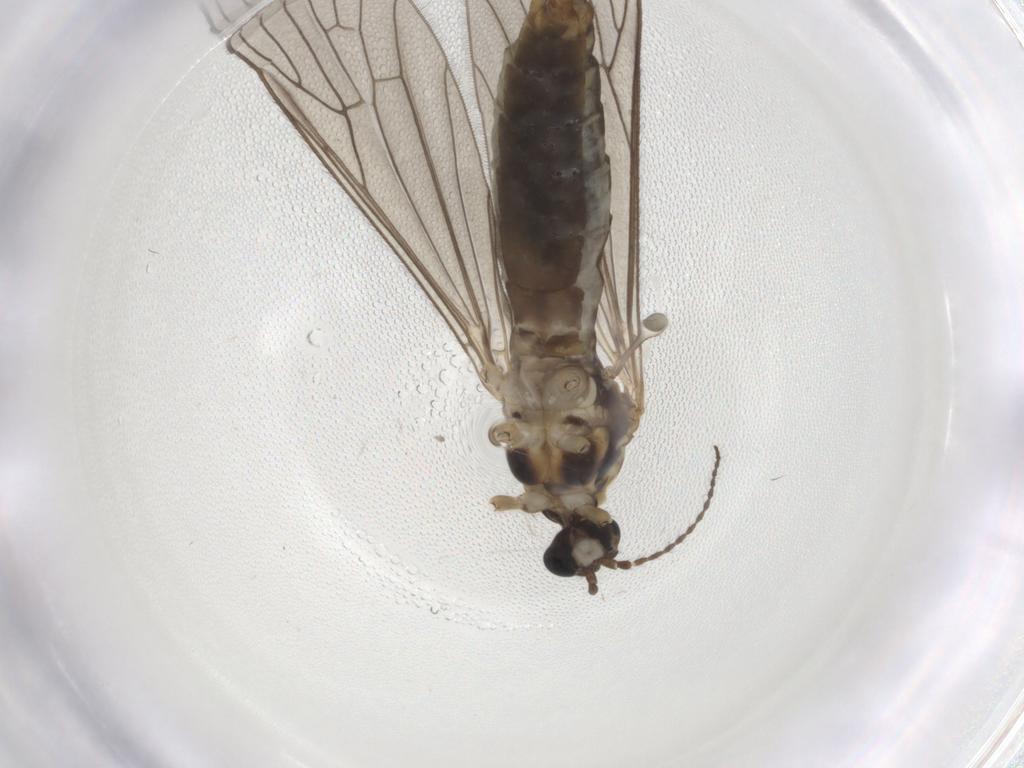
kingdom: Animalia
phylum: Arthropoda
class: Insecta
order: Diptera
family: Limoniidae
